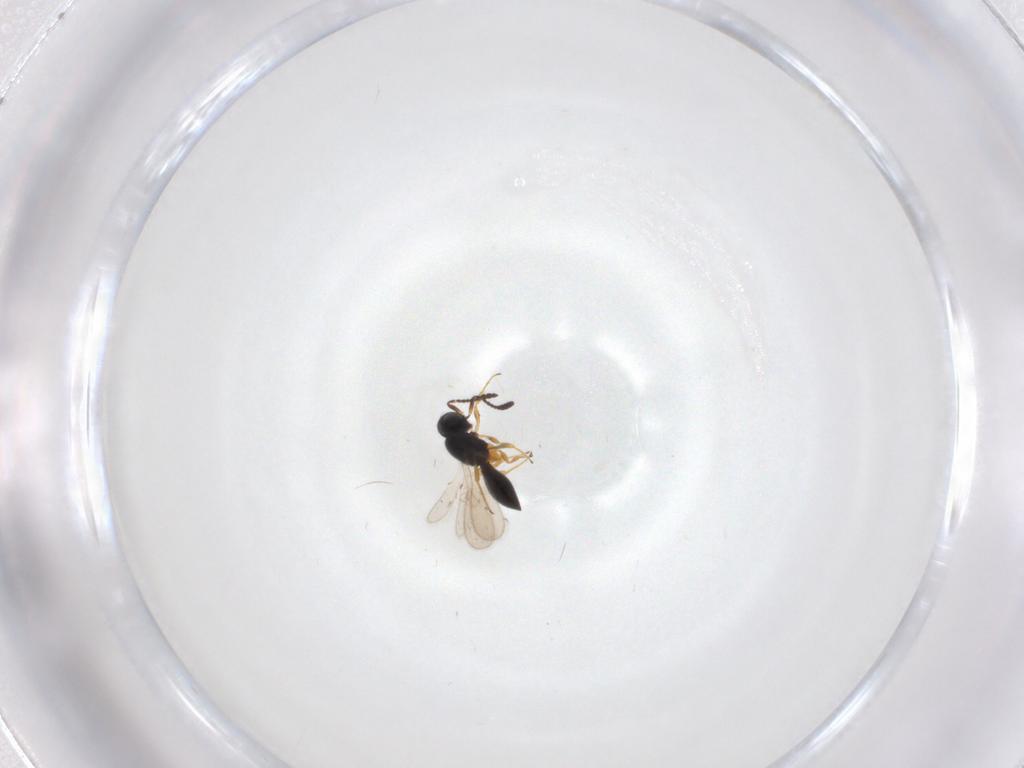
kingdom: Animalia
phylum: Arthropoda
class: Insecta
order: Hymenoptera
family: Scelionidae
